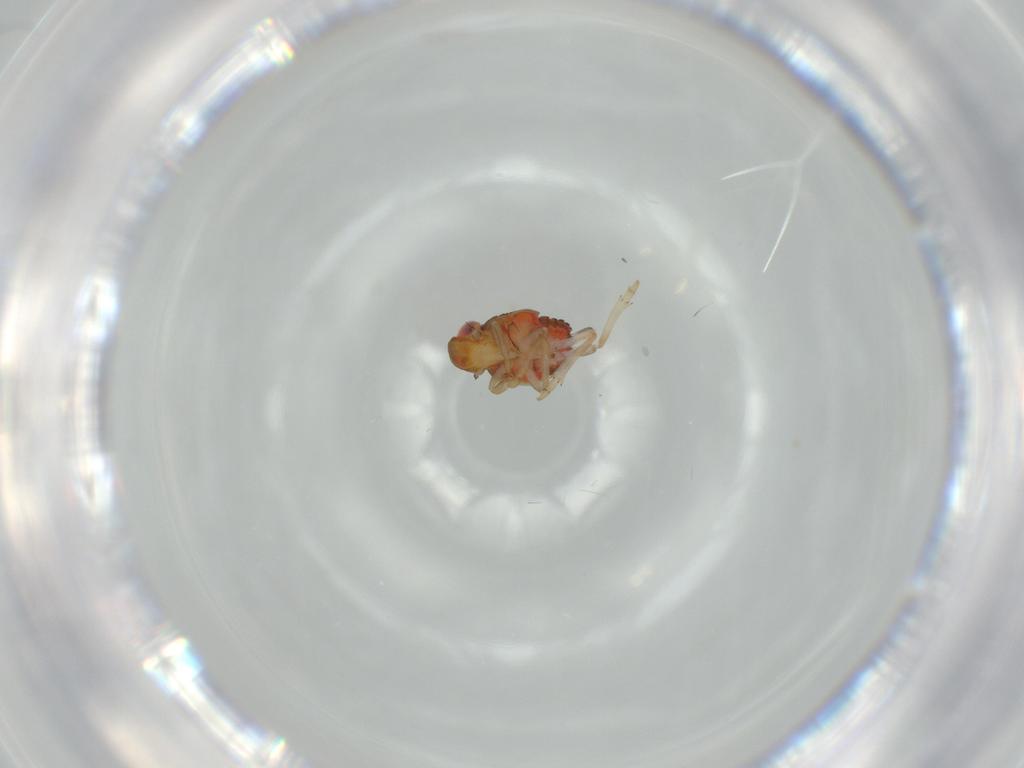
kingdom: Animalia
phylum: Arthropoda
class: Insecta
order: Hemiptera
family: Issidae
